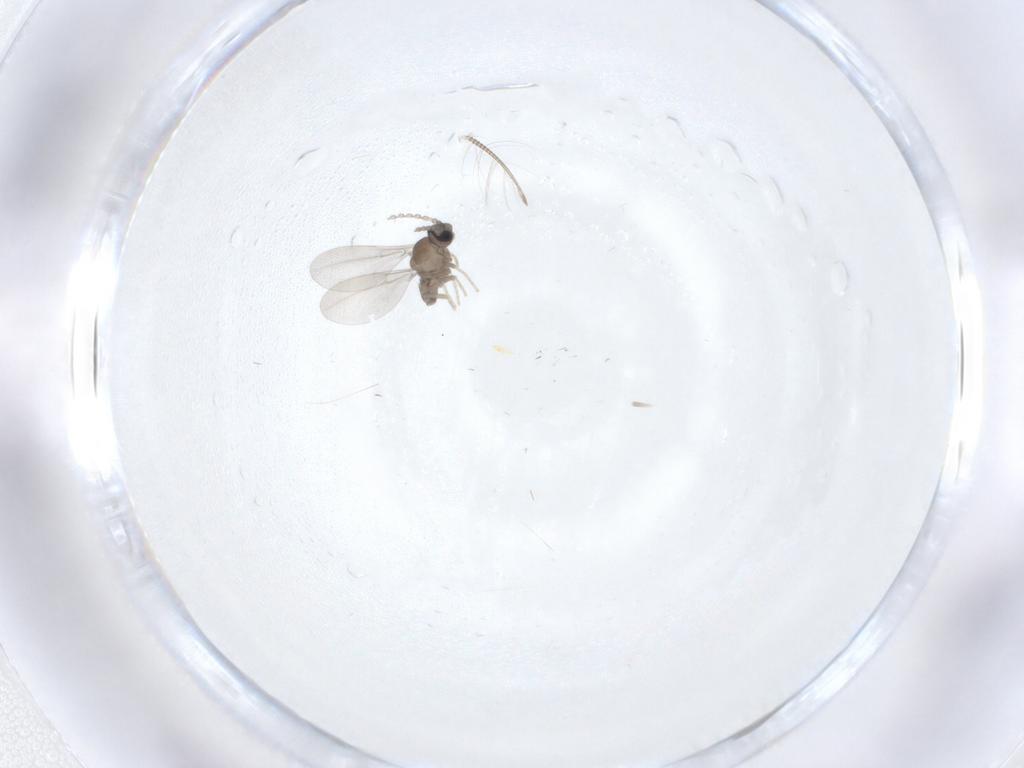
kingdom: Animalia
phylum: Arthropoda
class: Insecta
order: Diptera
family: Cecidomyiidae
